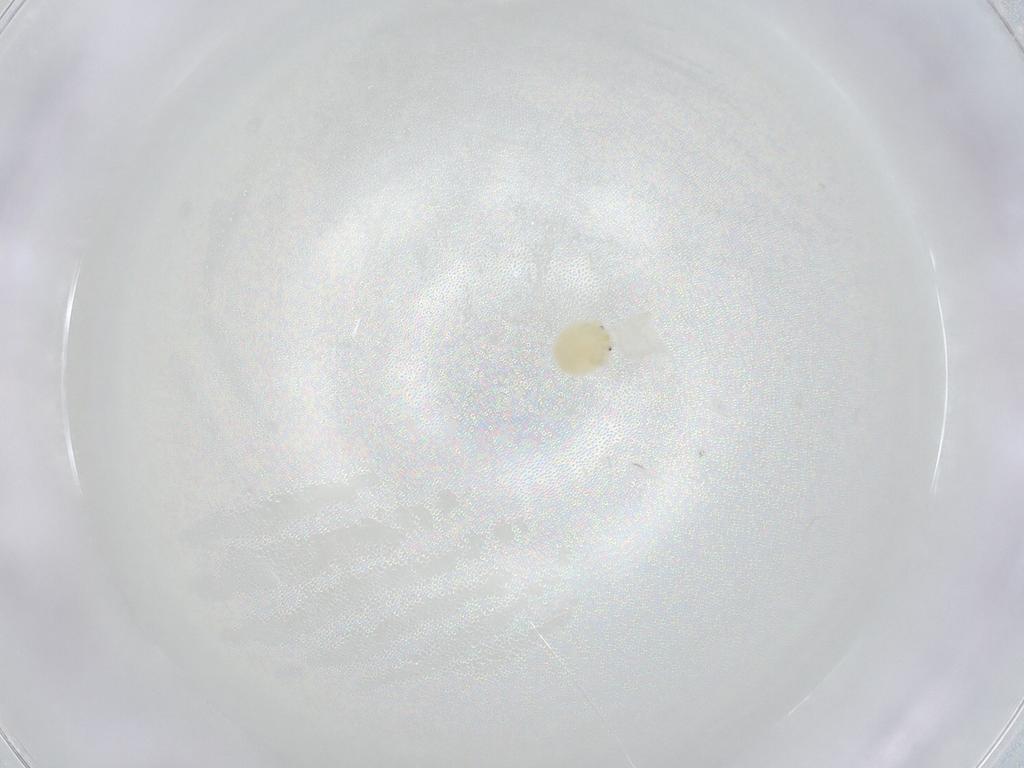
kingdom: Animalia
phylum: Arthropoda
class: Arachnida
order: Trombidiformes
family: Arrenuridae
